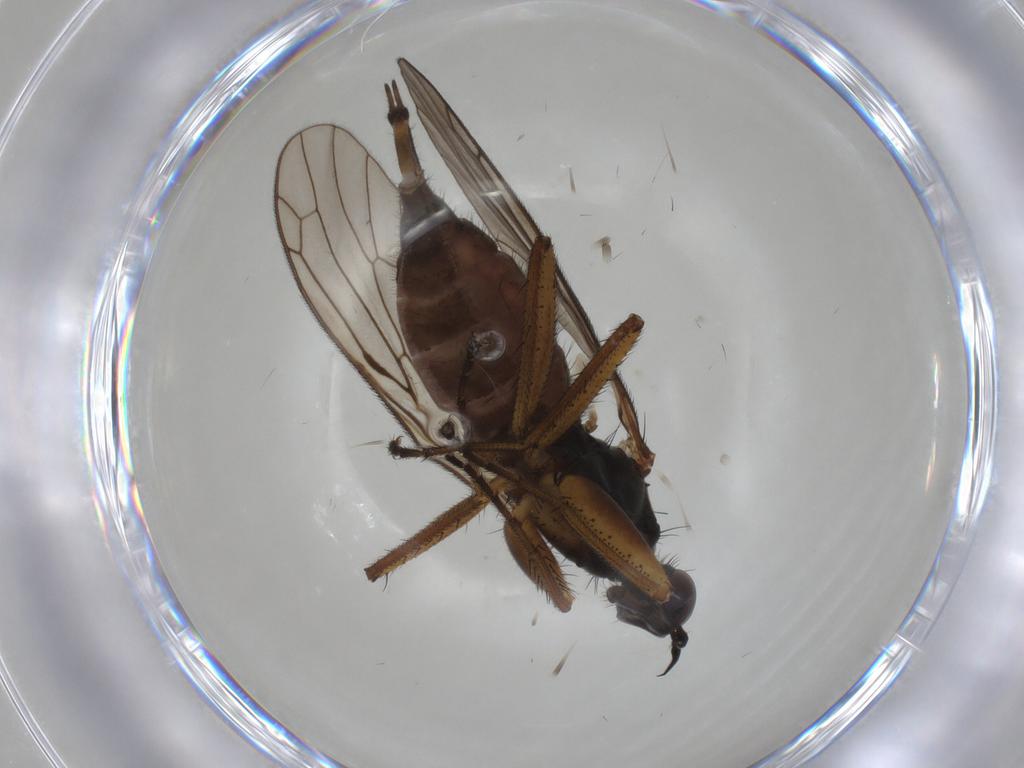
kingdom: Animalia
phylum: Arthropoda
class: Insecta
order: Diptera
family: Empididae
